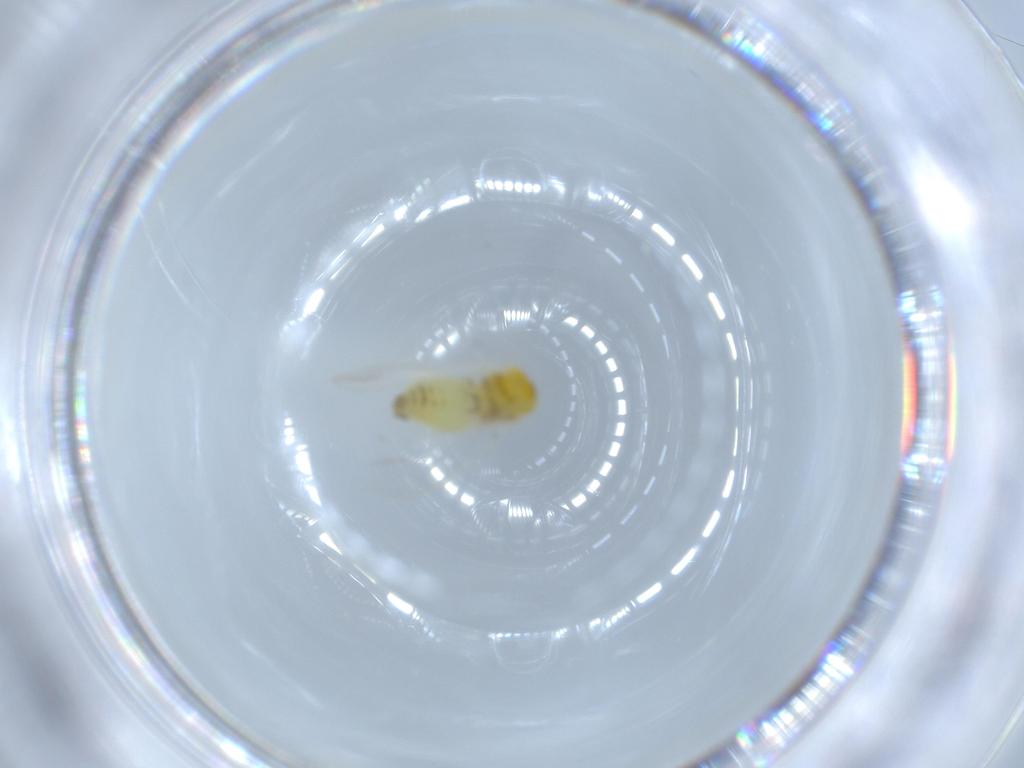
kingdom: Animalia
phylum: Arthropoda
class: Insecta
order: Hemiptera
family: Aleyrodidae
